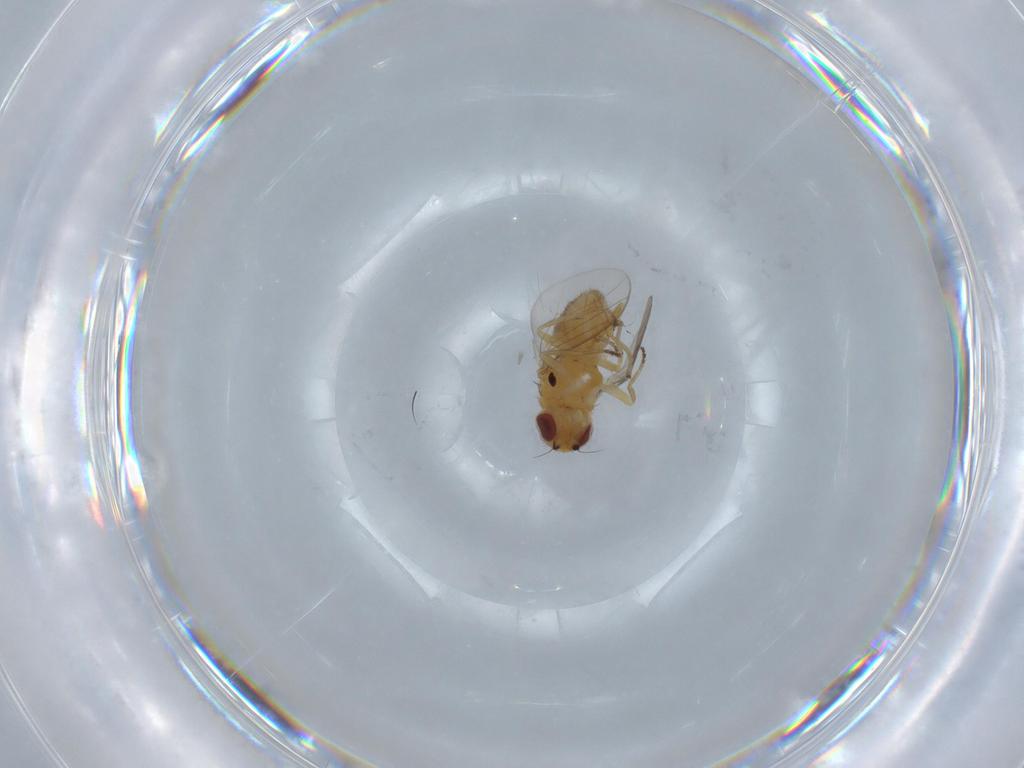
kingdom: Animalia
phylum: Arthropoda
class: Insecta
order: Diptera
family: Chloropidae
